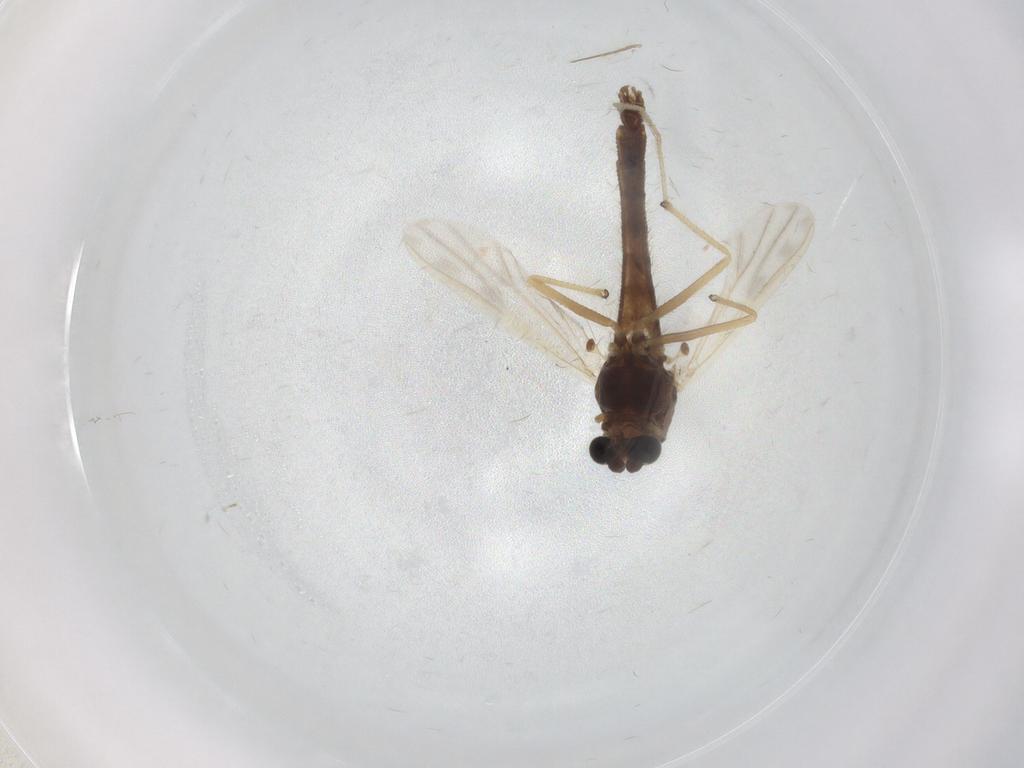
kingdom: Animalia
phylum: Arthropoda
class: Insecta
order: Diptera
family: Chironomidae
